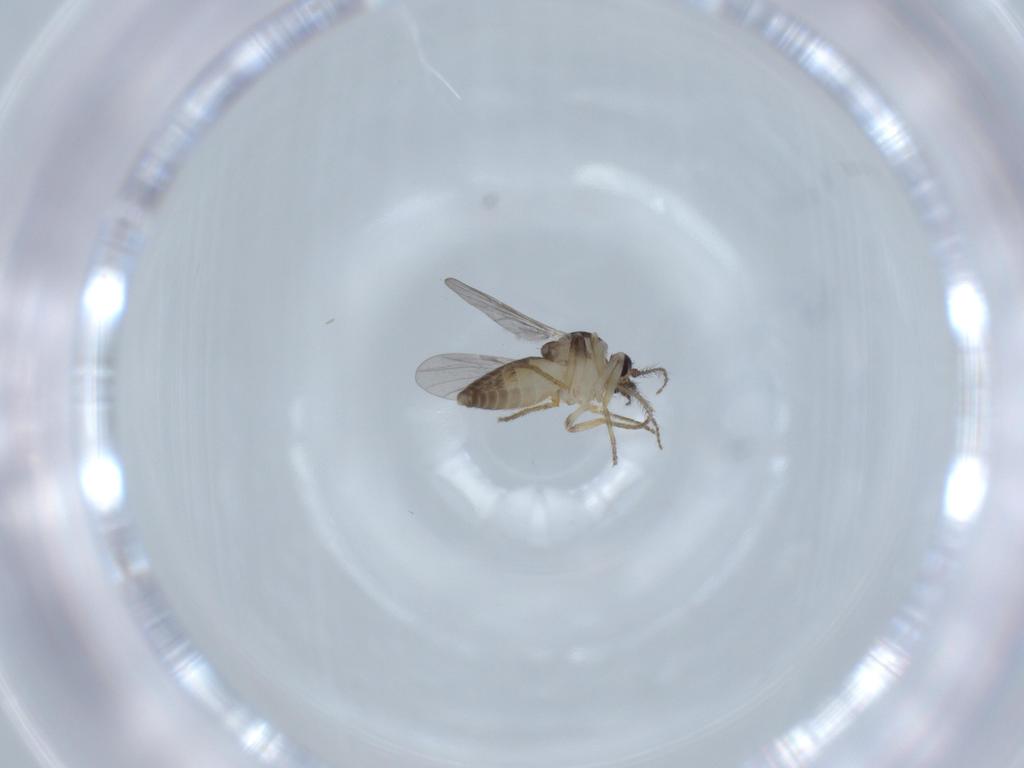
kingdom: Animalia
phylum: Arthropoda
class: Insecta
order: Diptera
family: Ceratopogonidae
